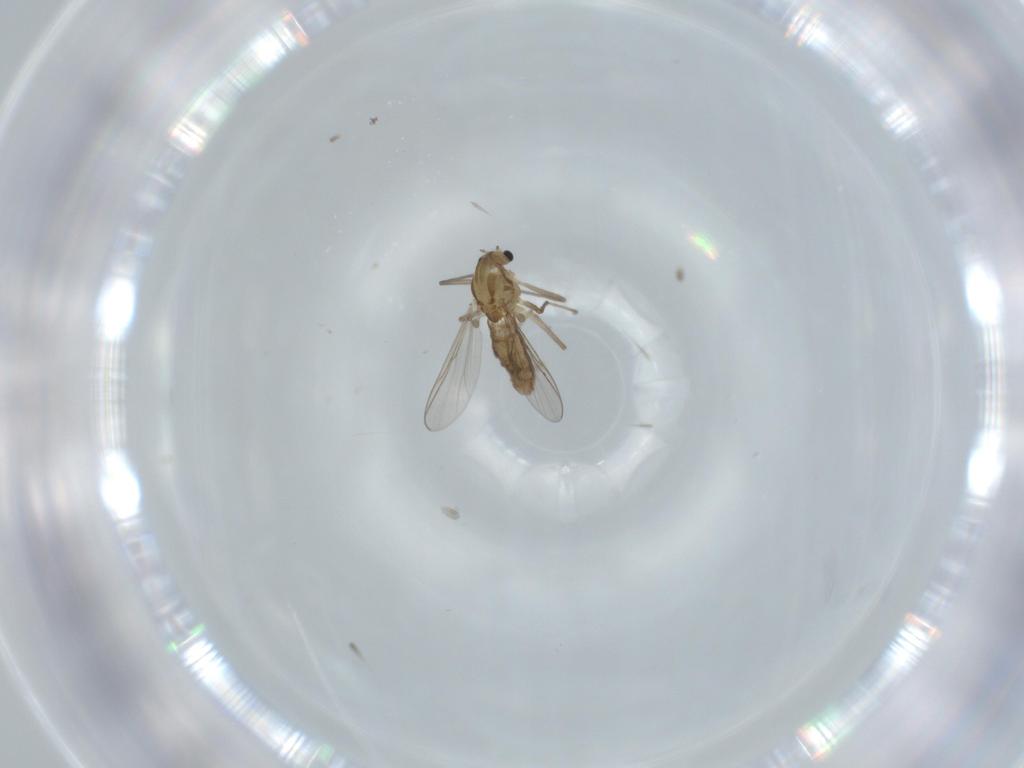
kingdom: Animalia
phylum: Arthropoda
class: Insecta
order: Diptera
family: Chironomidae
